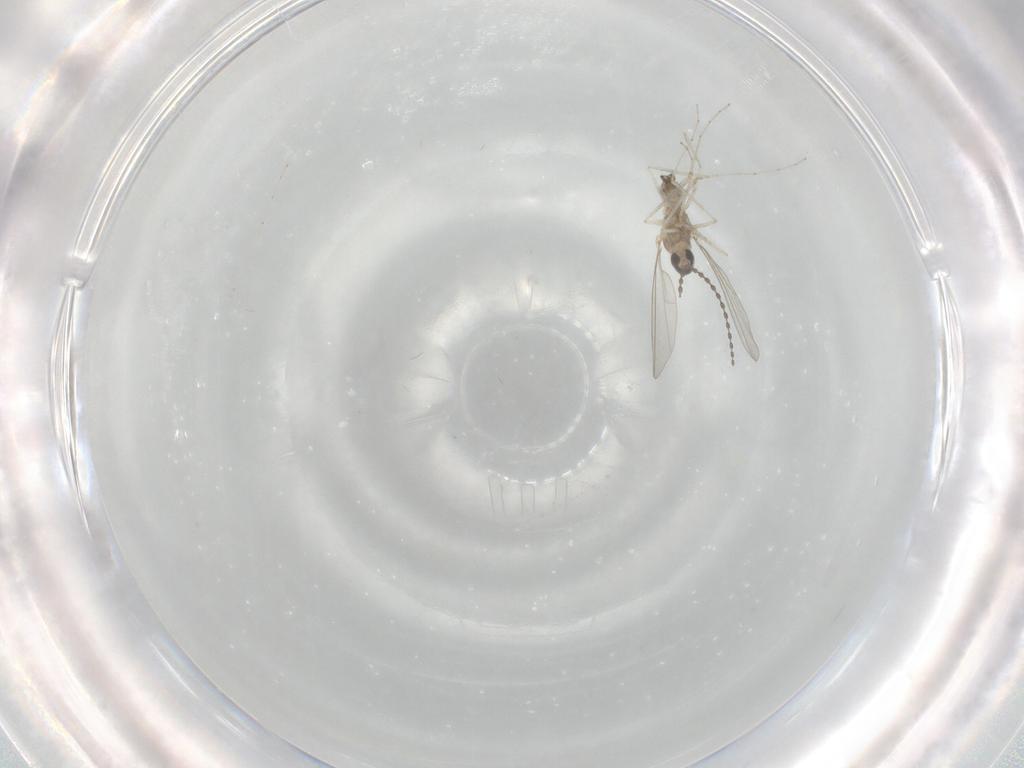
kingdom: Animalia
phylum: Arthropoda
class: Insecta
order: Diptera
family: Cecidomyiidae
